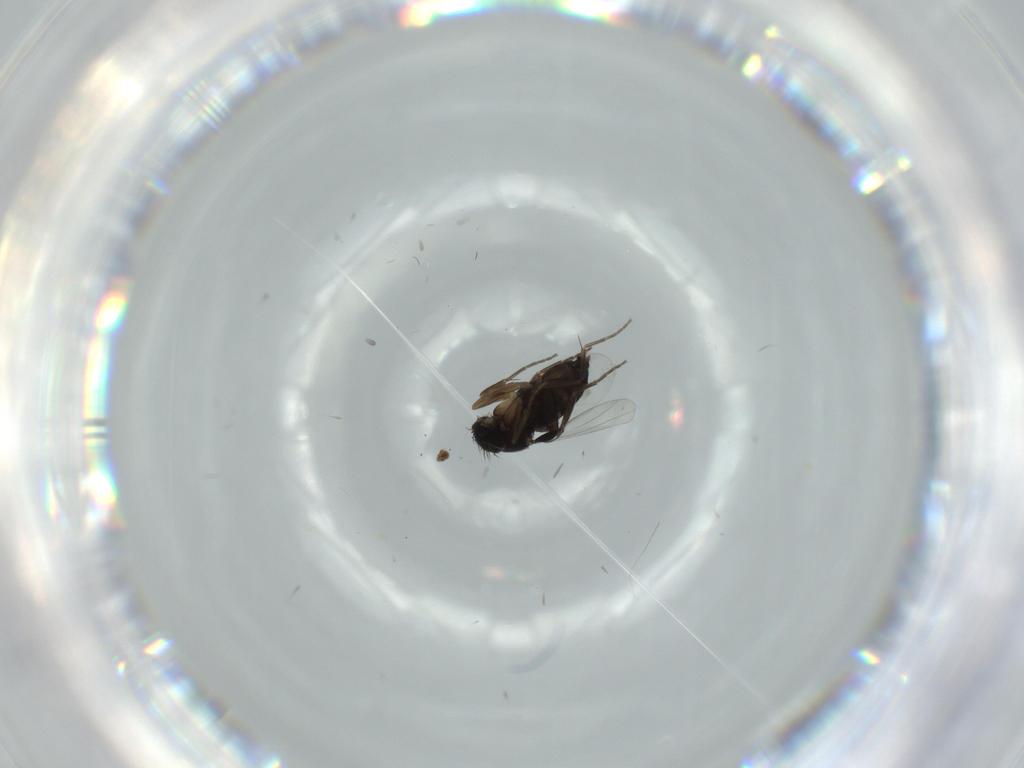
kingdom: Animalia
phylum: Arthropoda
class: Insecta
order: Diptera
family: Phoridae
